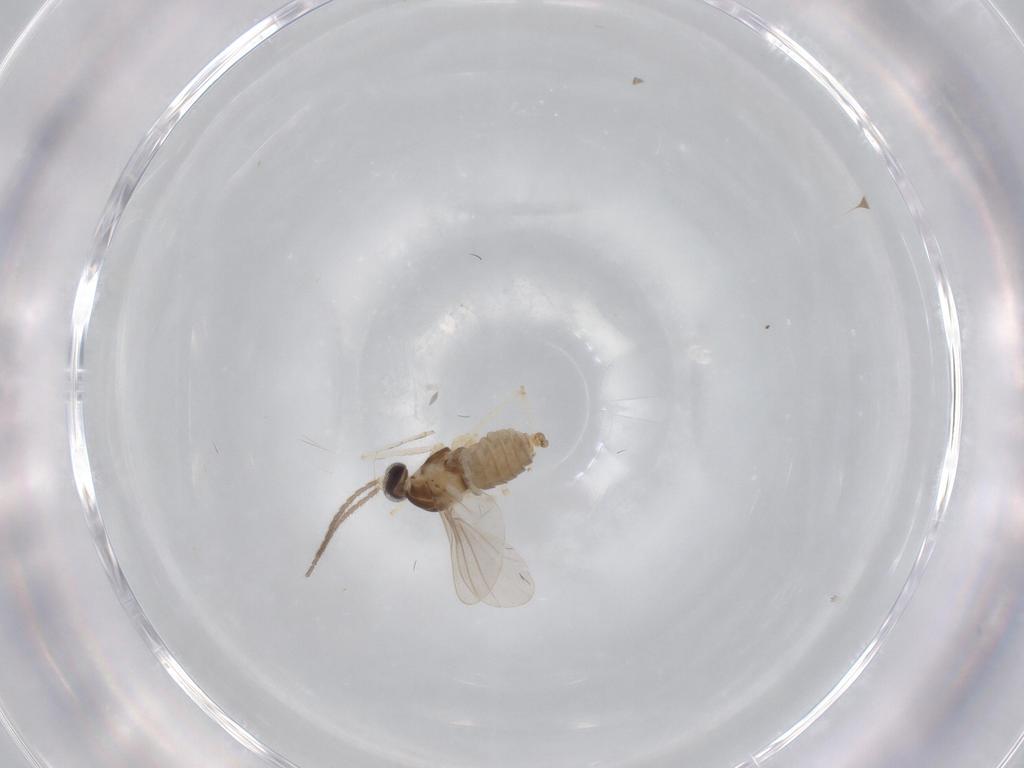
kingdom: Animalia
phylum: Arthropoda
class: Insecta
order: Diptera
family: Cecidomyiidae
